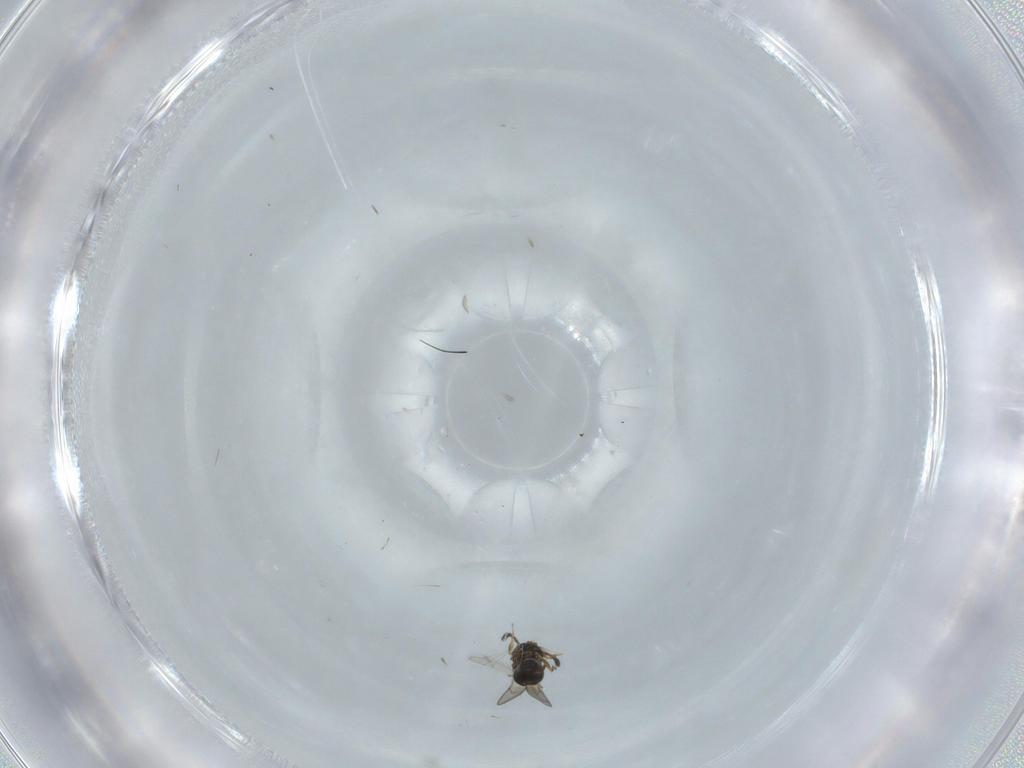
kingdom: Animalia
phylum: Arthropoda
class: Insecta
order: Hymenoptera
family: Scelionidae
